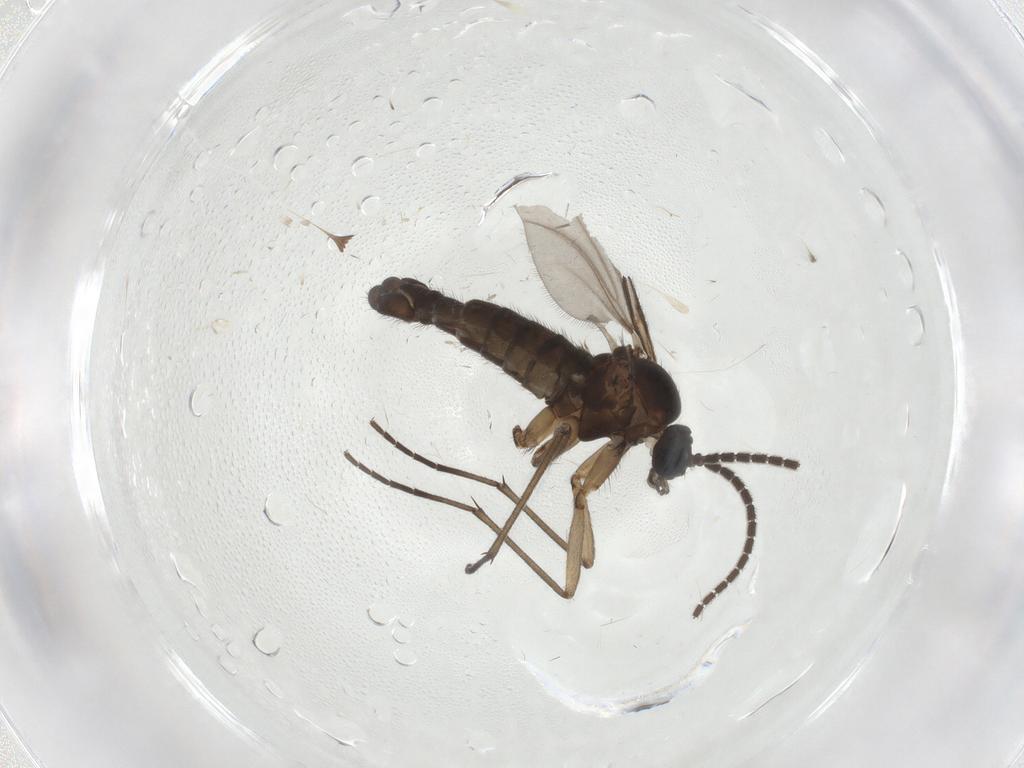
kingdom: Animalia
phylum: Arthropoda
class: Insecta
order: Diptera
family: Sciaridae
